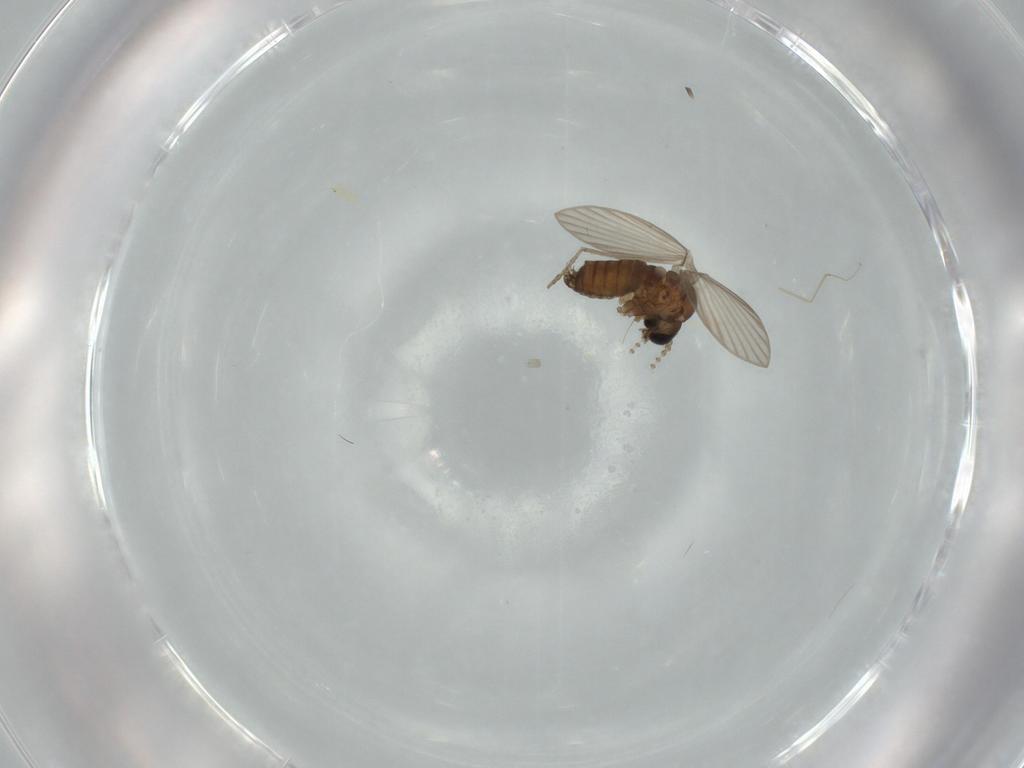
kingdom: Animalia
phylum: Arthropoda
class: Insecta
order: Diptera
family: Psychodidae
